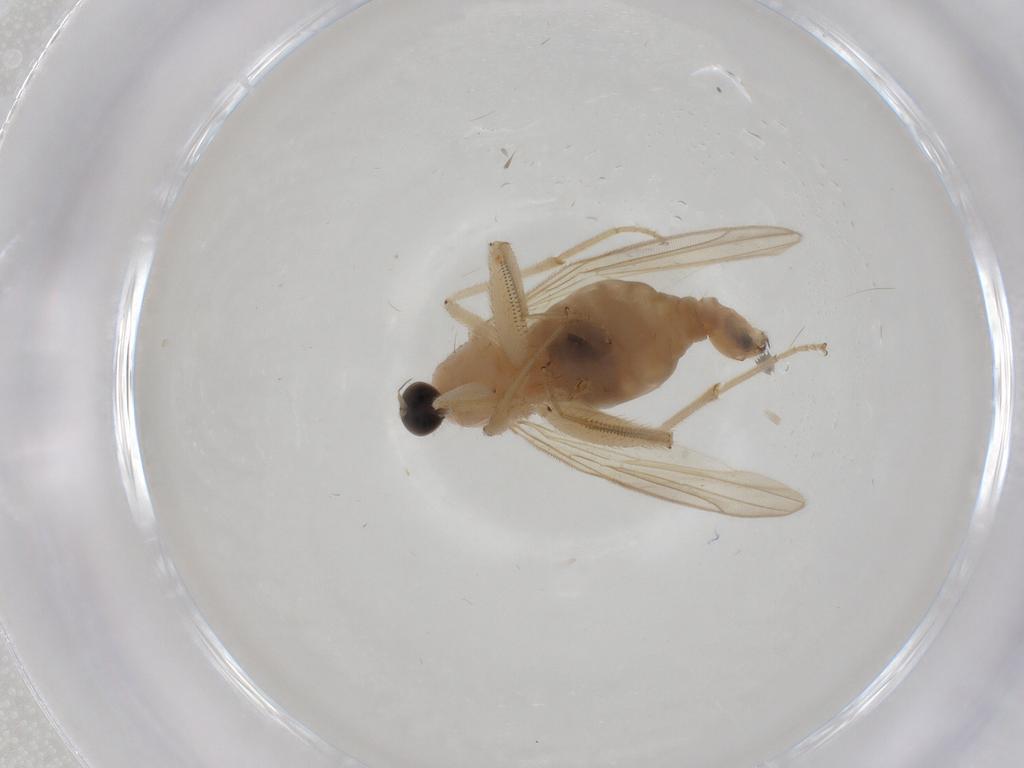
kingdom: Animalia
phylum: Arthropoda
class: Insecta
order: Diptera
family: Hybotidae
